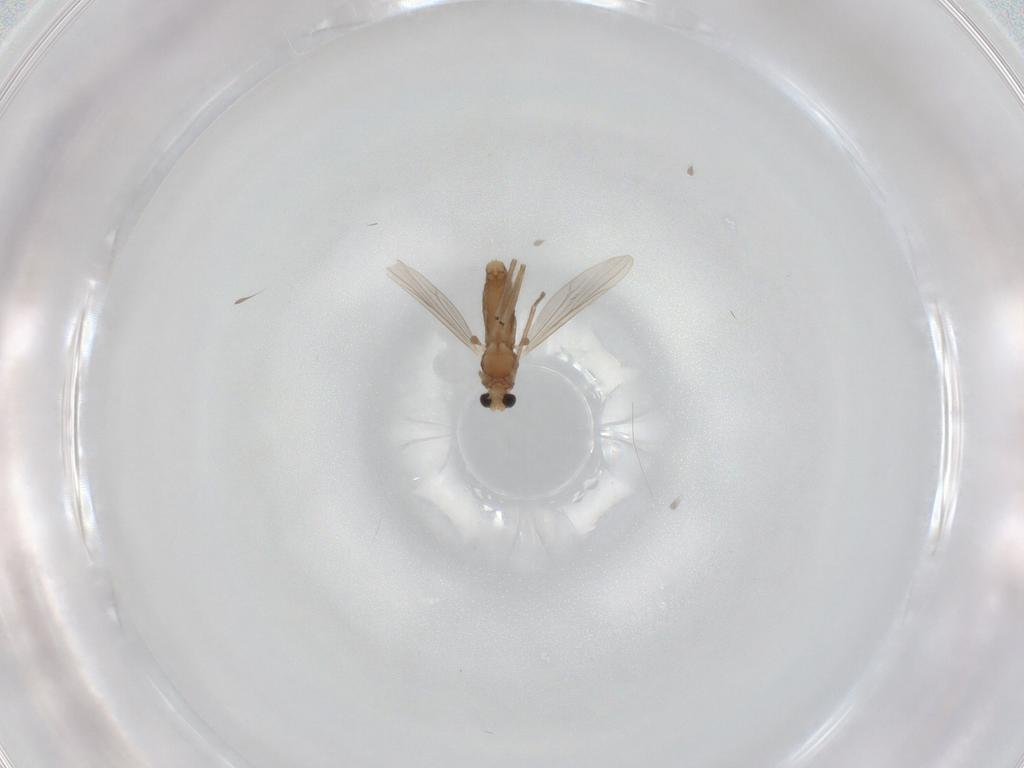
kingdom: Animalia
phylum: Arthropoda
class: Insecta
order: Diptera
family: Chironomidae
